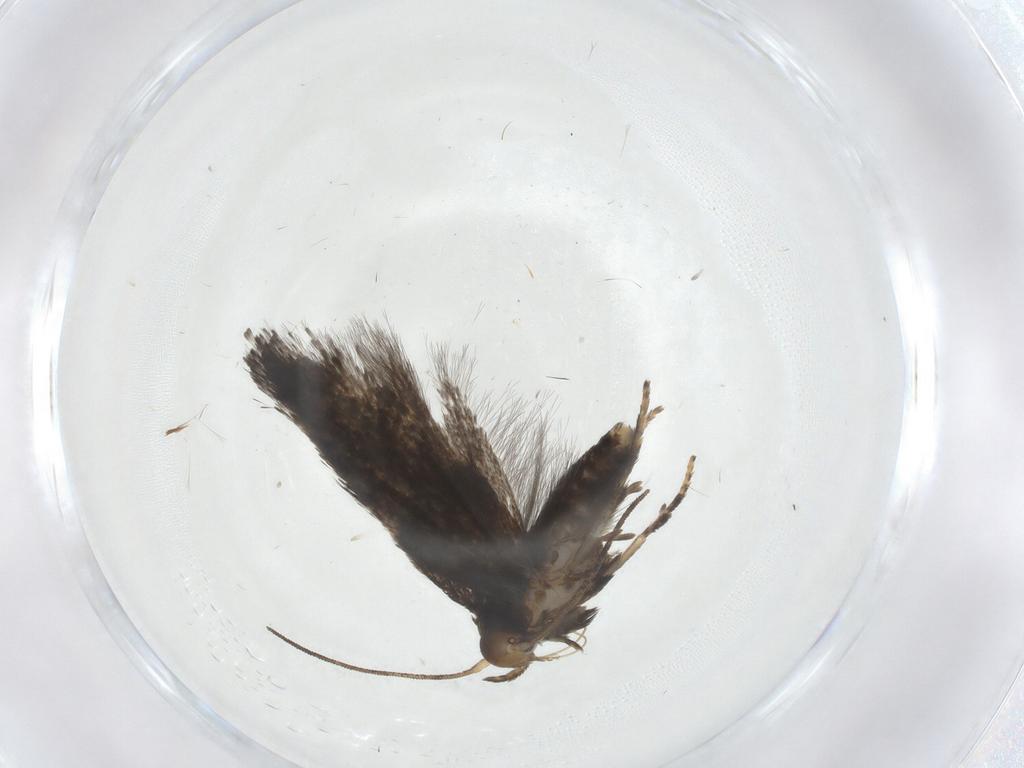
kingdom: Animalia
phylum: Arthropoda
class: Insecta
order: Lepidoptera
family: Pieridae
